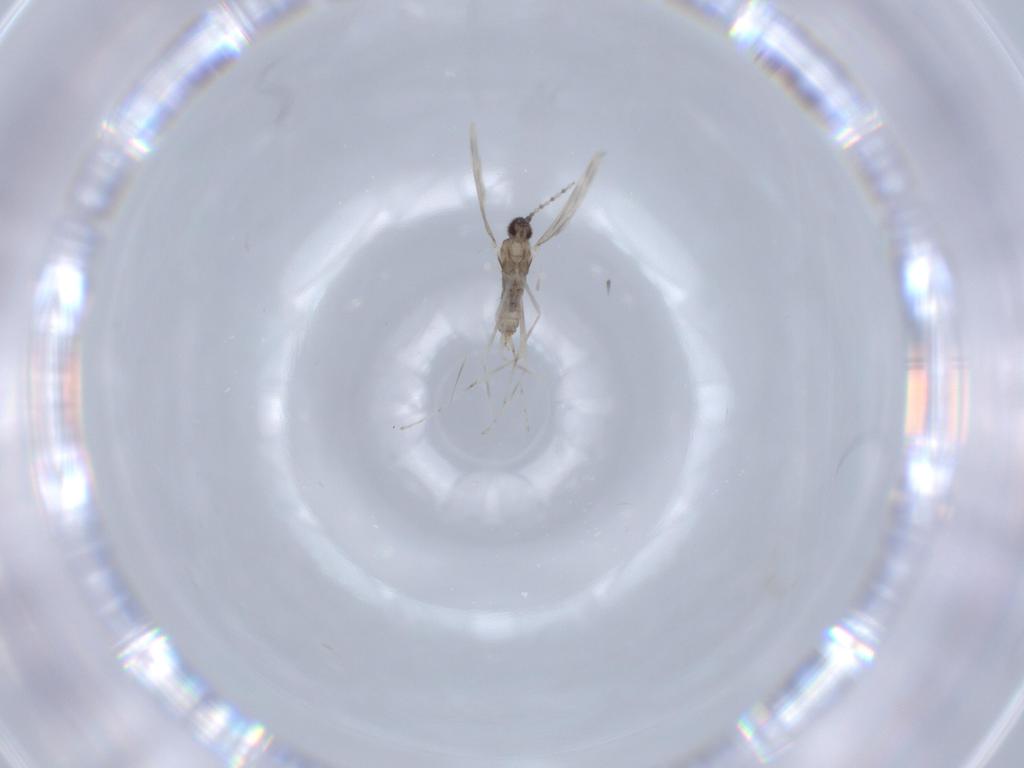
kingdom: Animalia
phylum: Arthropoda
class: Insecta
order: Diptera
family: Cecidomyiidae
